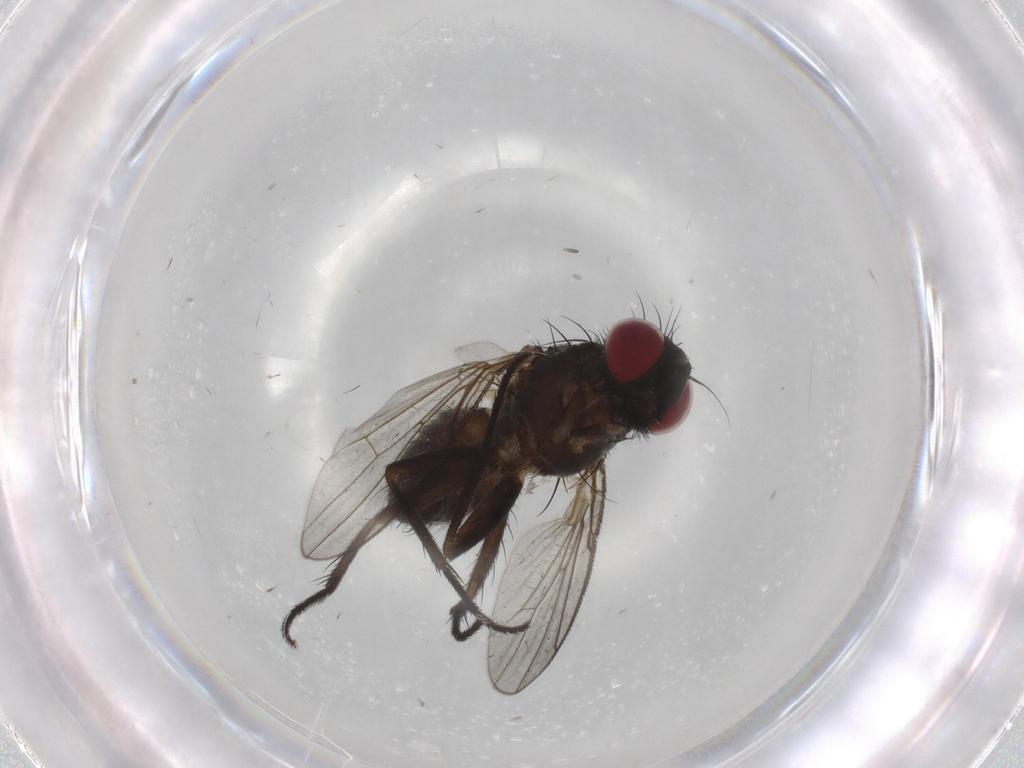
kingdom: Animalia
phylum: Arthropoda
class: Insecta
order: Diptera
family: Muscidae
